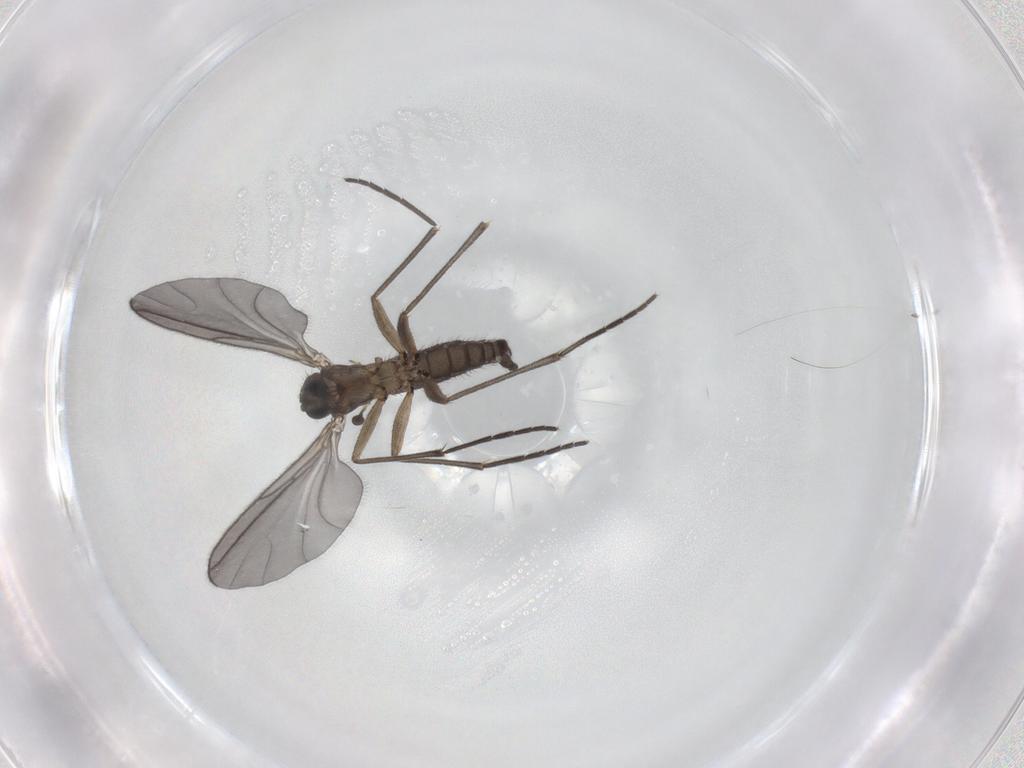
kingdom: Animalia
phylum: Arthropoda
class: Insecta
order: Diptera
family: Sciaridae
